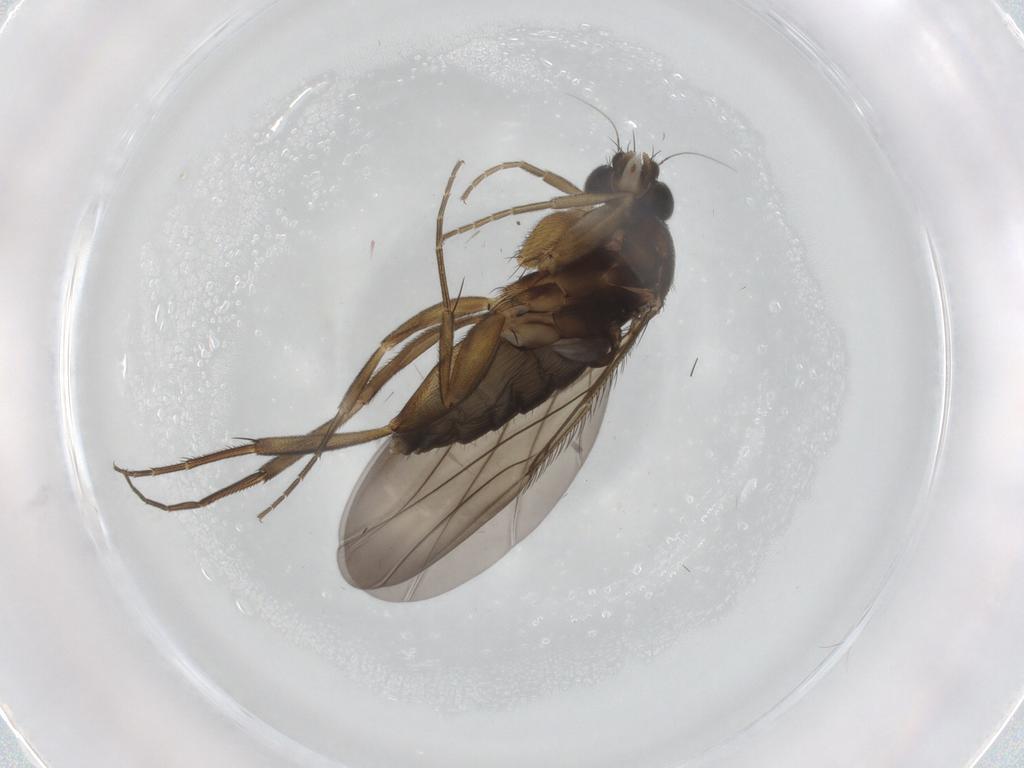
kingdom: Animalia
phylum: Arthropoda
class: Insecta
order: Diptera
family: Phoridae
